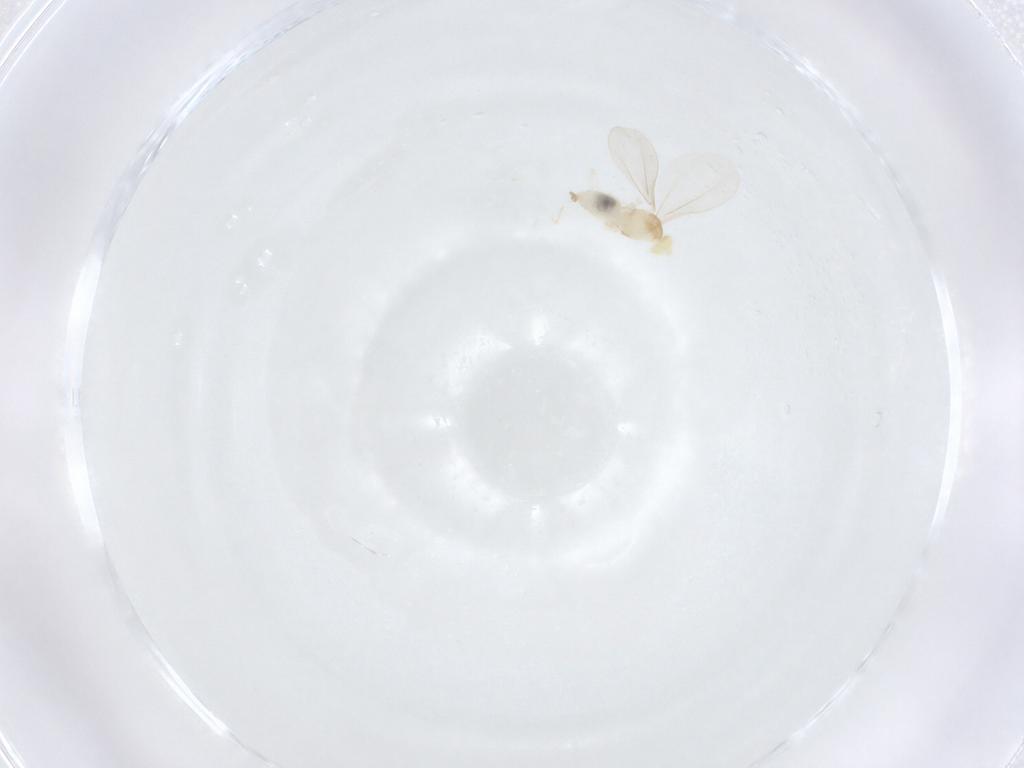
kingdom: Animalia
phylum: Arthropoda
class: Insecta
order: Diptera
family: Cecidomyiidae
